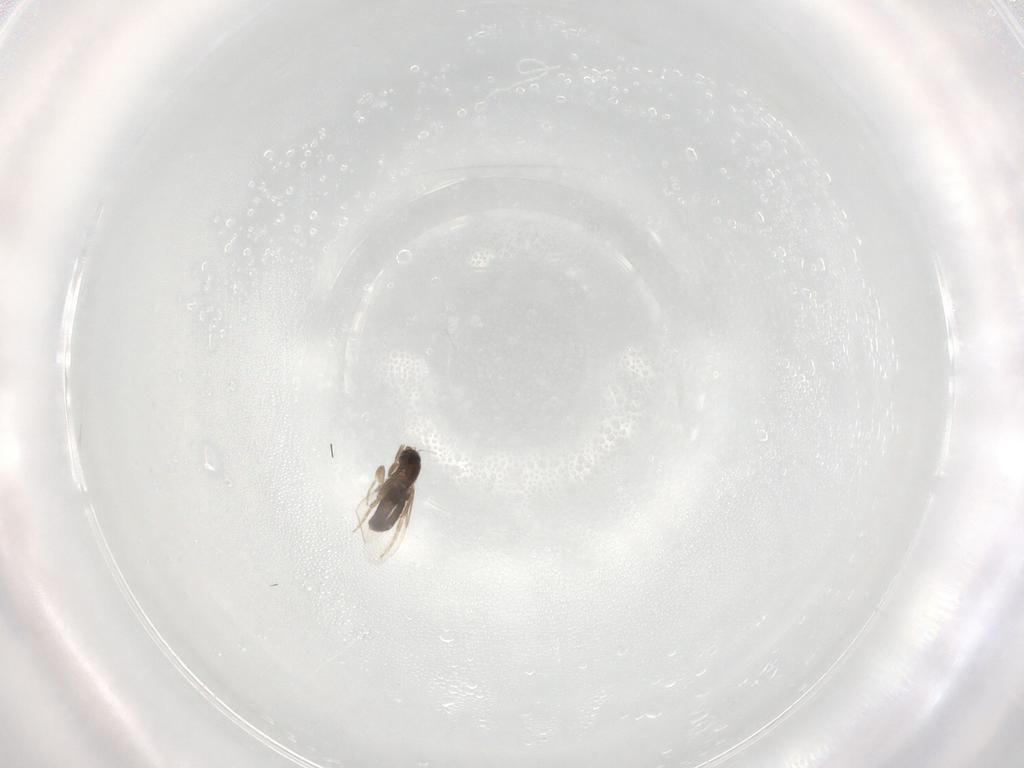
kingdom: Animalia
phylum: Arthropoda
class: Insecta
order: Diptera
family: Phoridae
